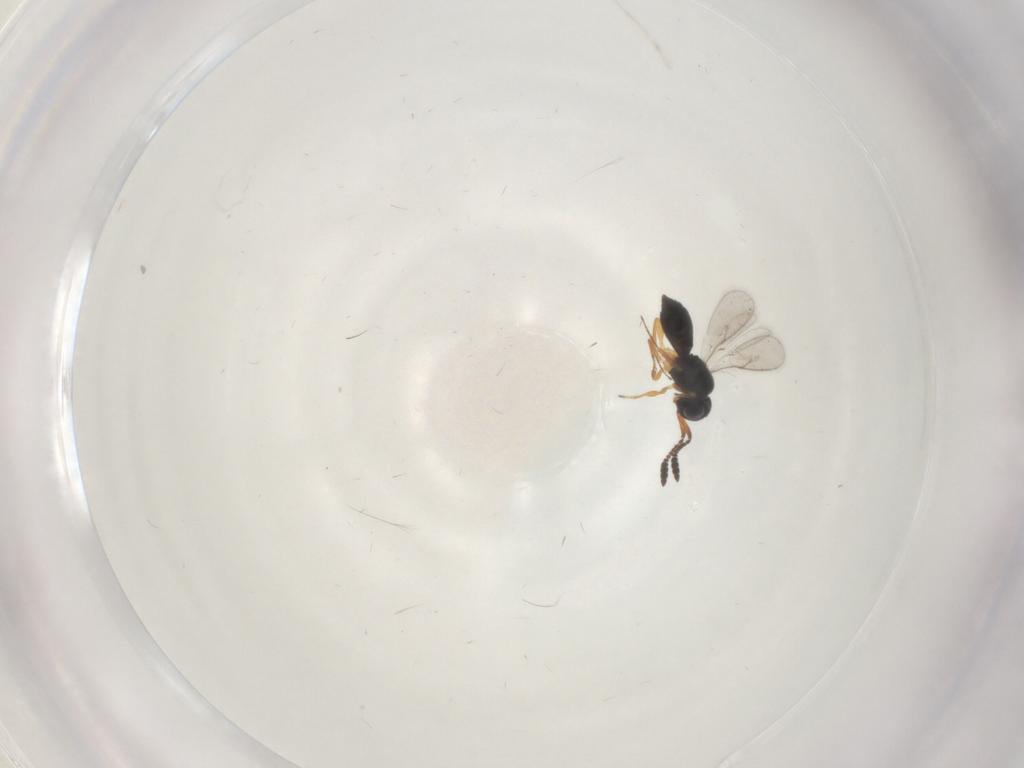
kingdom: Animalia
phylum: Arthropoda
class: Insecta
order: Hymenoptera
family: Scelionidae
